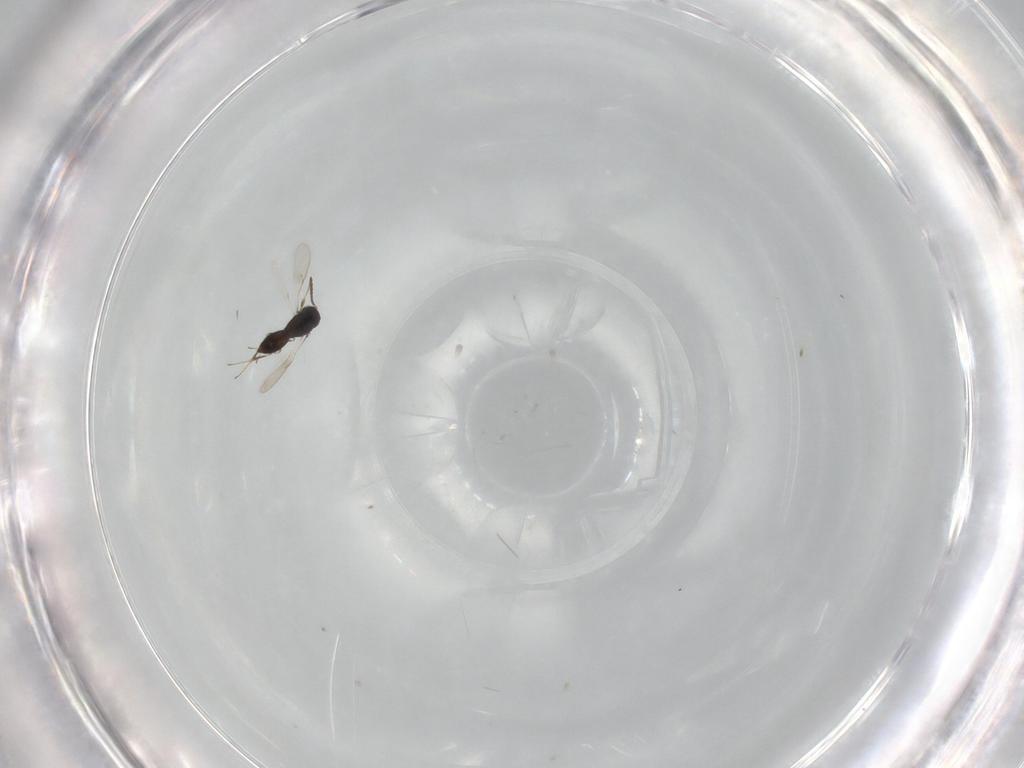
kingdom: Animalia
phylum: Arthropoda
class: Insecta
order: Hymenoptera
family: Scelionidae
